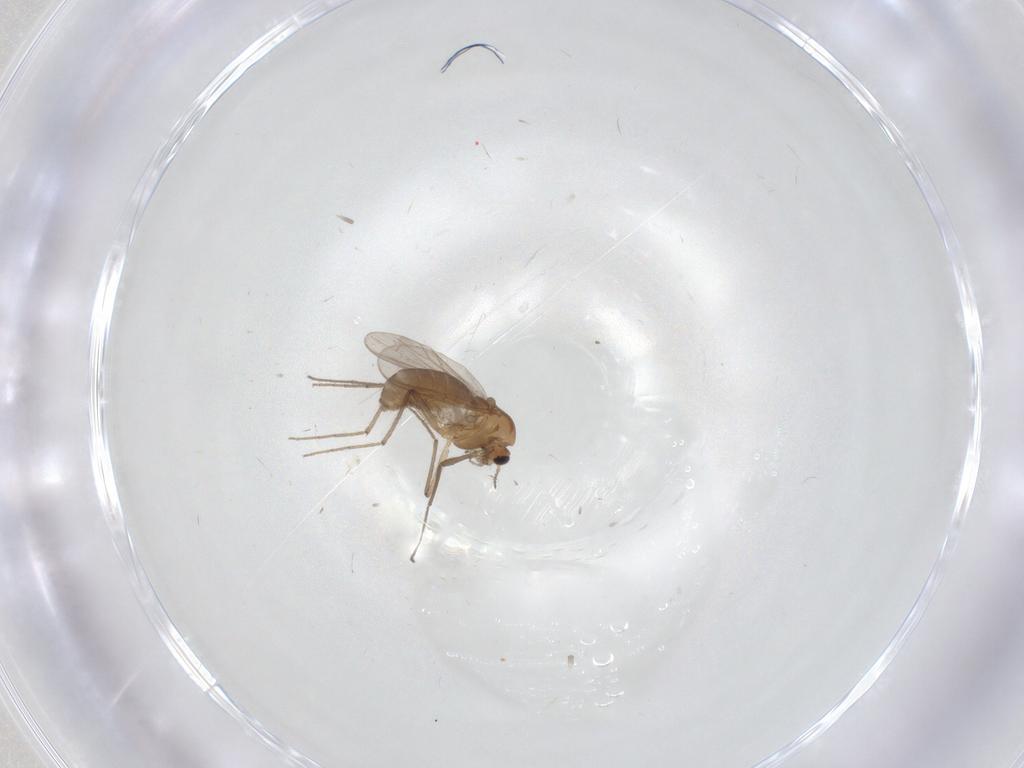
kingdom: Animalia
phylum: Arthropoda
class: Insecta
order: Diptera
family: Chironomidae
